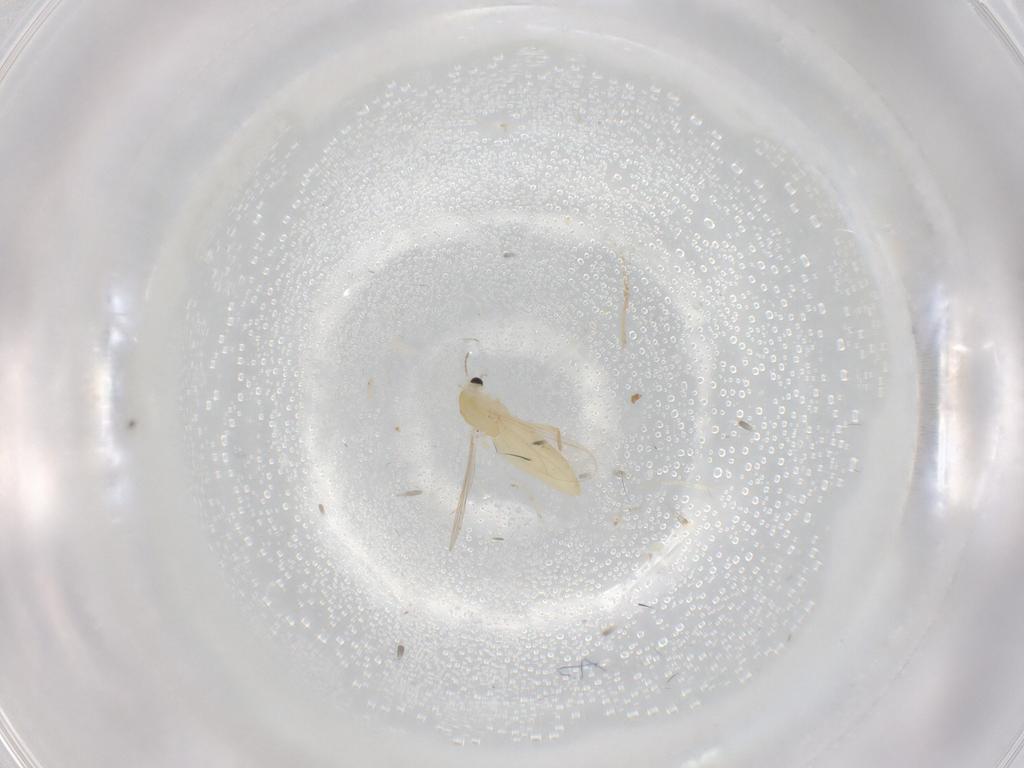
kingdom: Animalia
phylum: Arthropoda
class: Insecta
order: Diptera
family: Chironomidae
